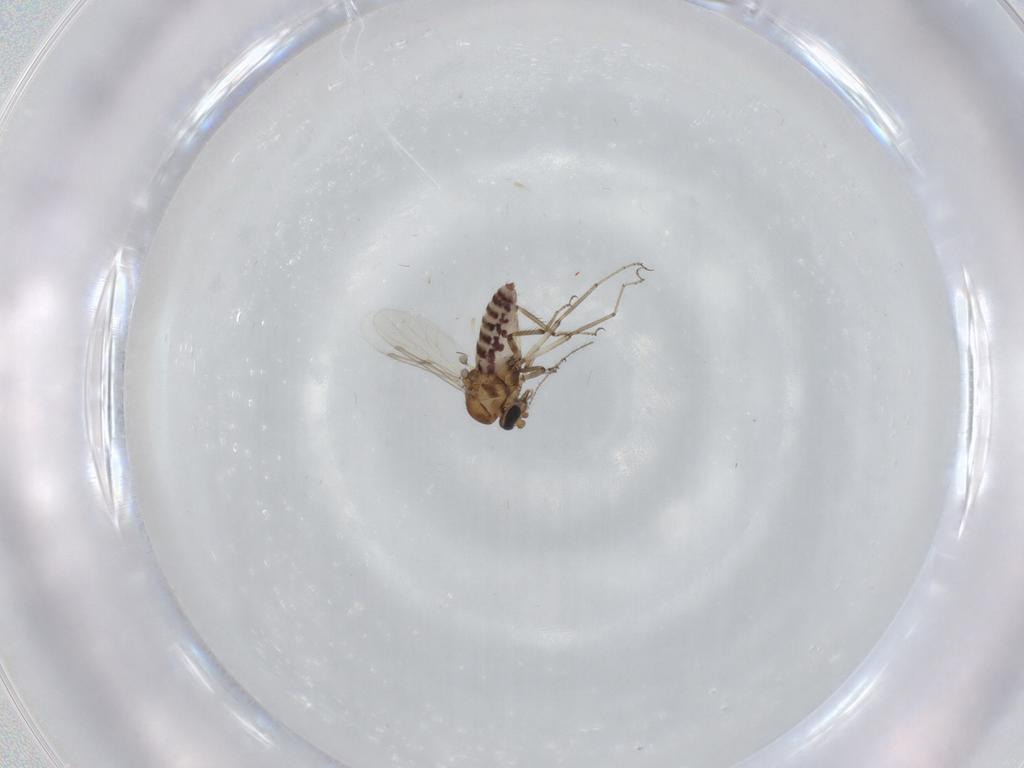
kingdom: Animalia
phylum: Arthropoda
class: Insecta
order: Diptera
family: Ceratopogonidae
